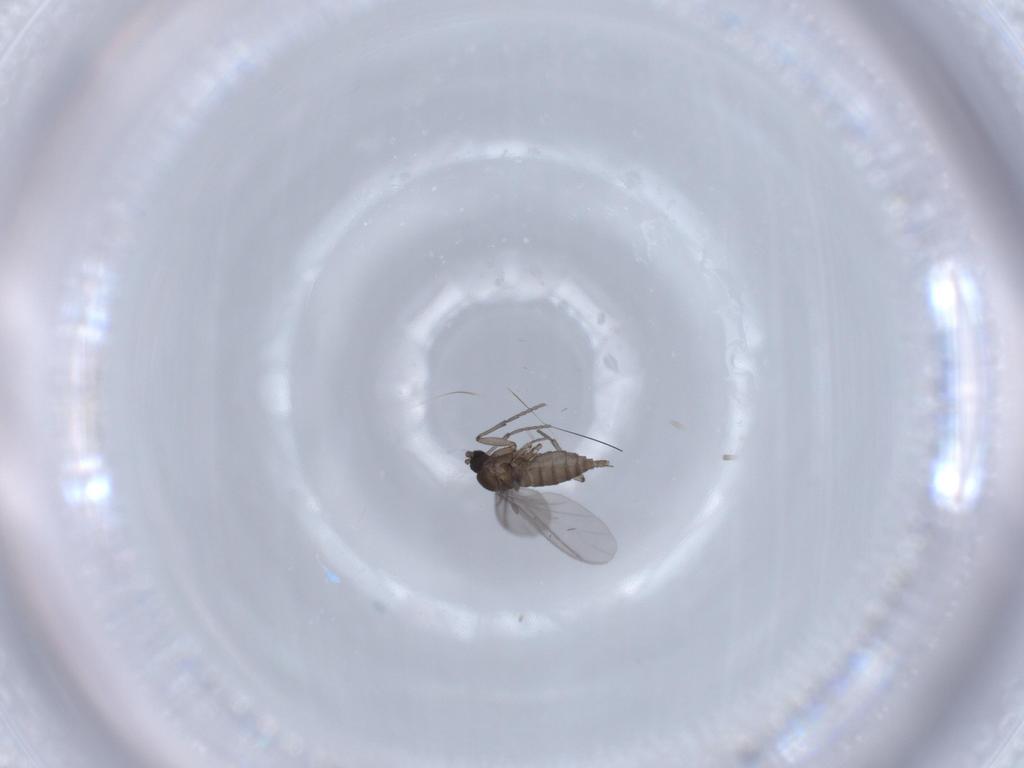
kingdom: Animalia
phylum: Arthropoda
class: Insecta
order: Diptera
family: Sciaridae
